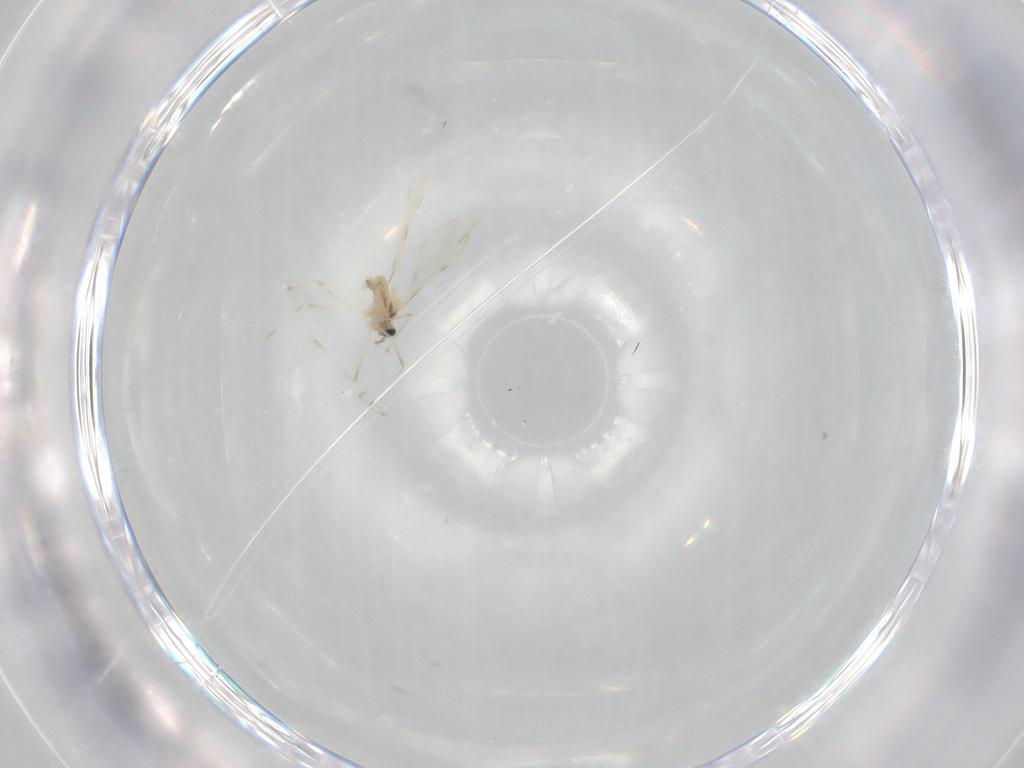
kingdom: Animalia
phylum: Arthropoda
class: Insecta
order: Diptera
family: Cecidomyiidae
